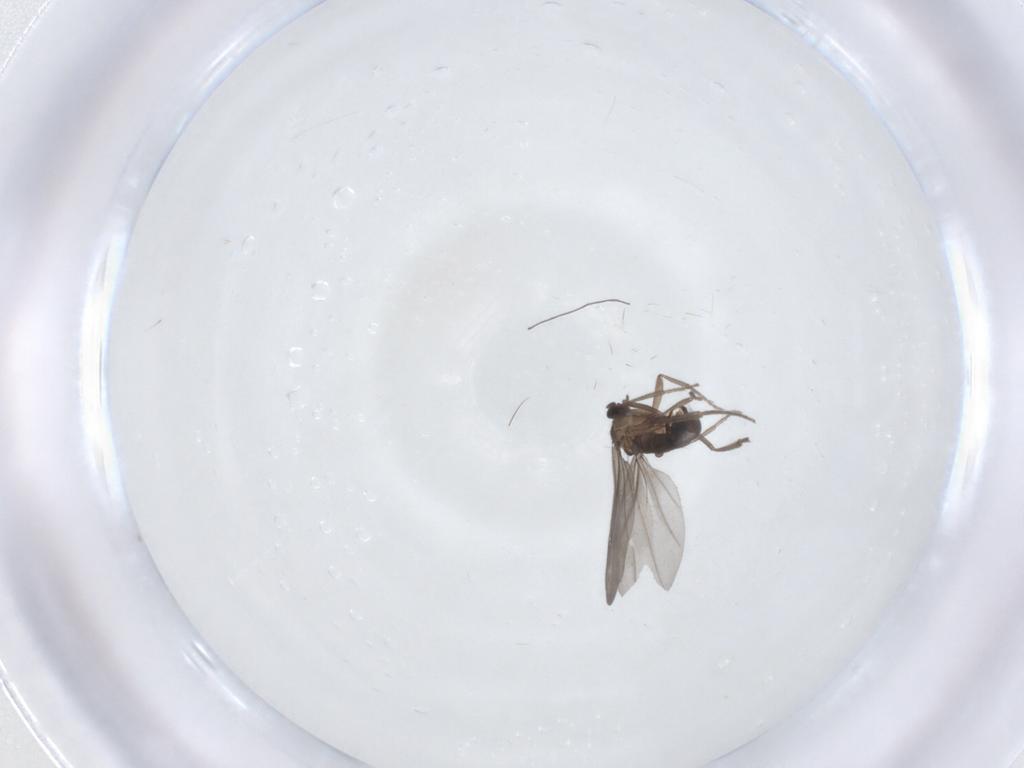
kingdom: Animalia
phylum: Arthropoda
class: Insecta
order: Diptera
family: Phoridae
